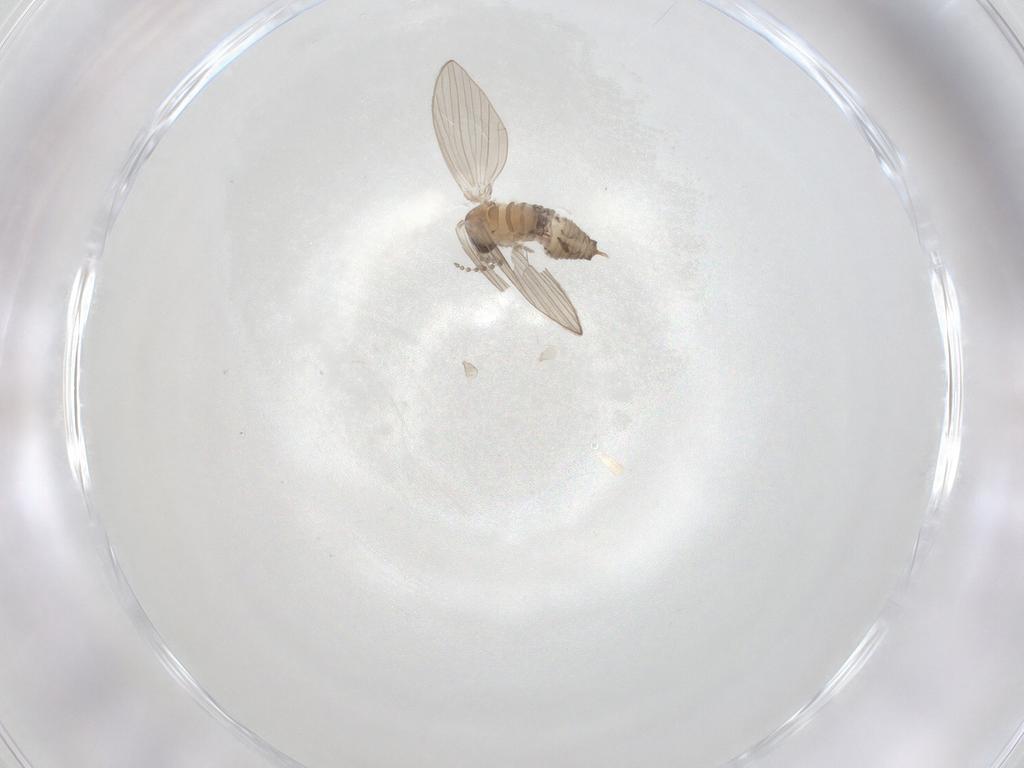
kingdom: Animalia
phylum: Arthropoda
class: Insecta
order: Diptera
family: Psychodidae
